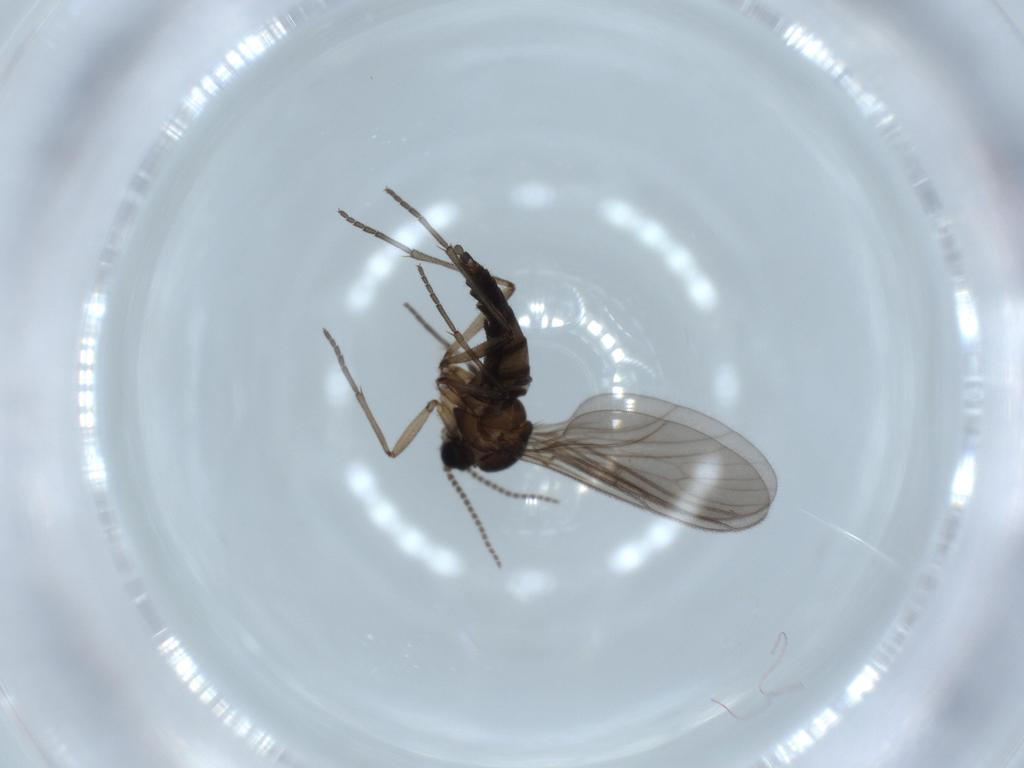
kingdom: Animalia
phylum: Arthropoda
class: Insecta
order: Diptera
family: Sciaridae
